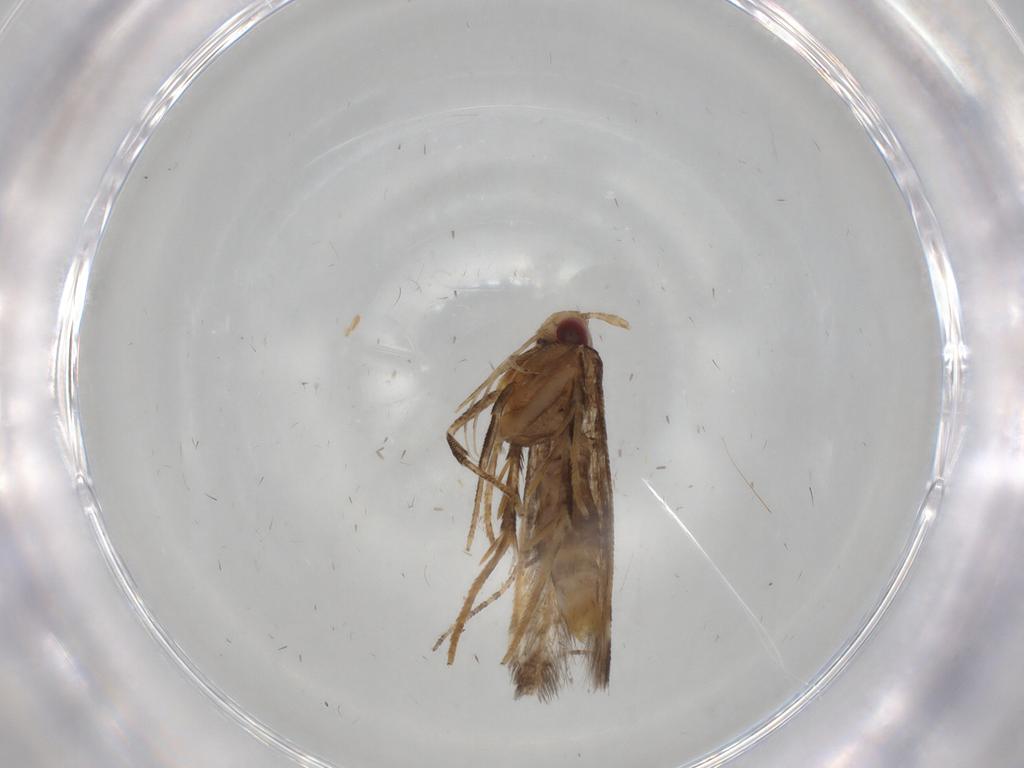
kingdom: Animalia
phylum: Arthropoda
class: Insecta
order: Lepidoptera
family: Cosmopterigidae
